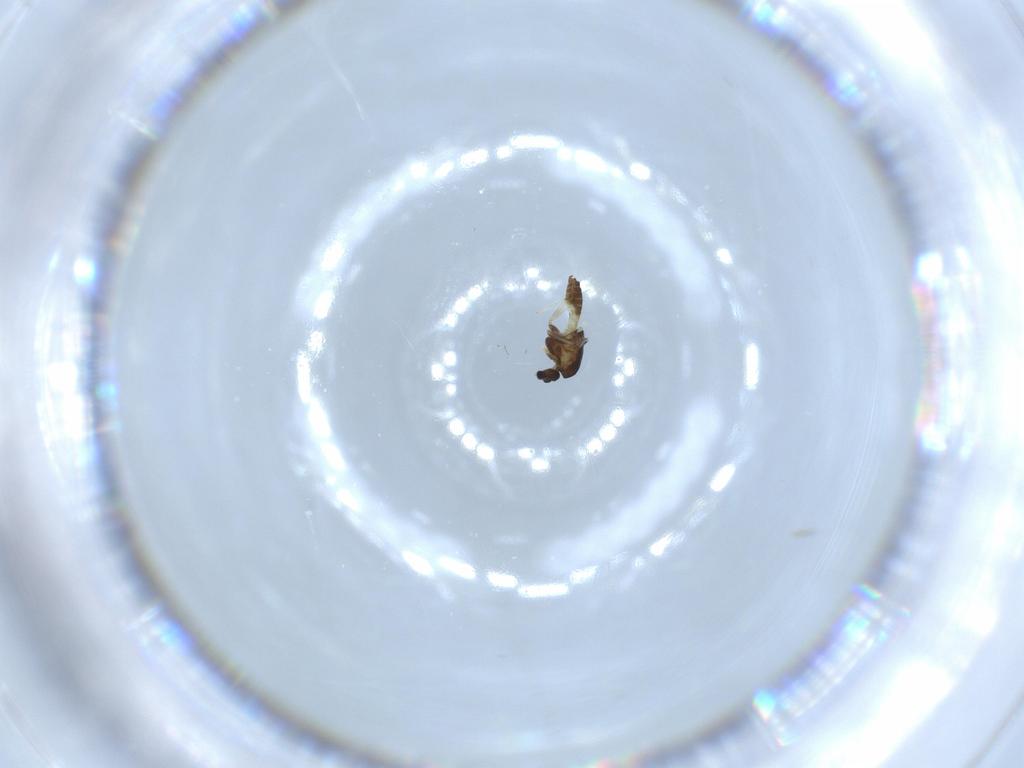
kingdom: Animalia
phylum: Arthropoda
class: Insecta
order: Diptera
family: Chironomidae
